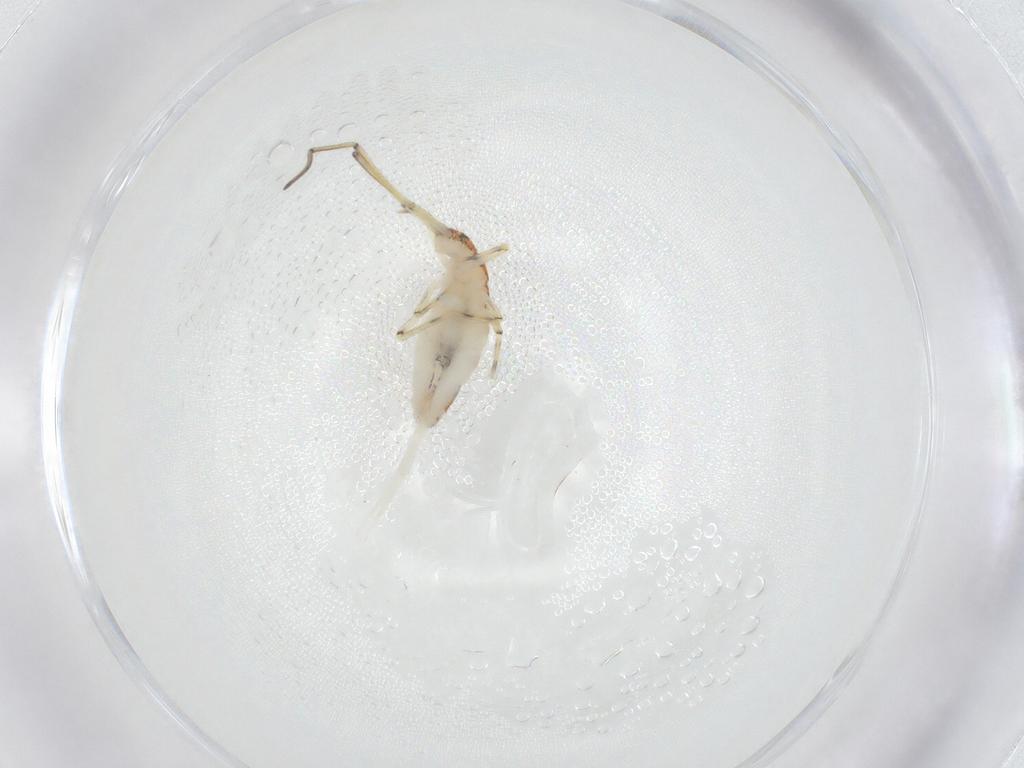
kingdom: Animalia
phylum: Arthropoda
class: Collembola
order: Entomobryomorpha
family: Paronellidae
